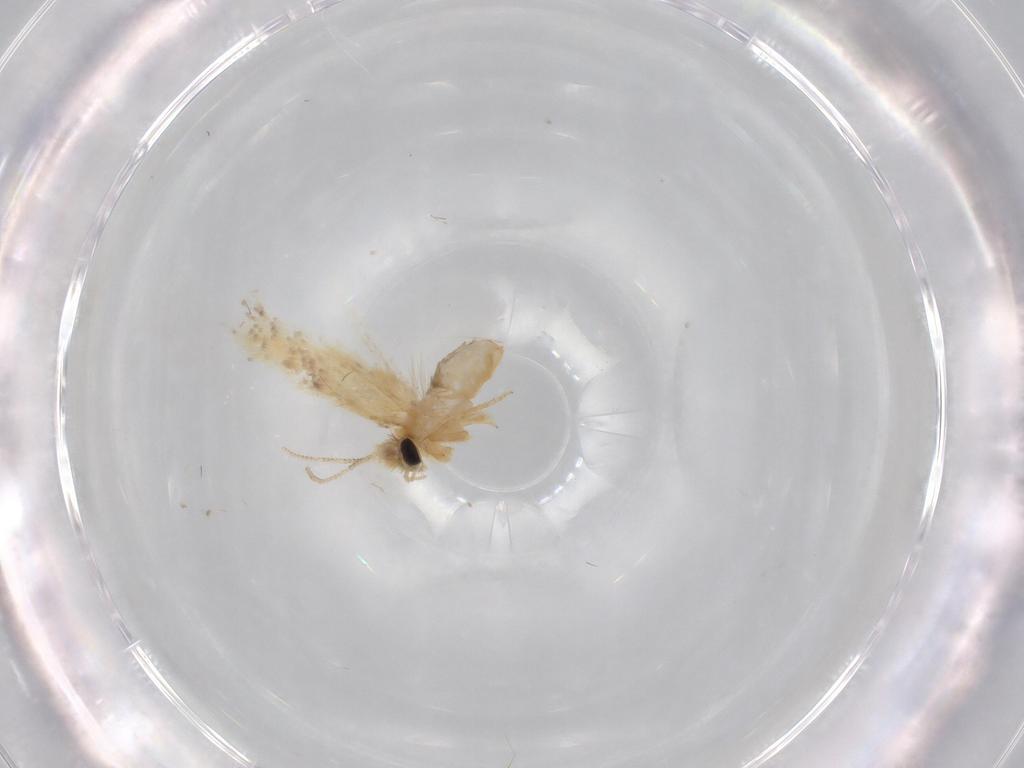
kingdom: Animalia
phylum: Arthropoda
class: Insecta
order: Lepidoptera
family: Nepticulidae
